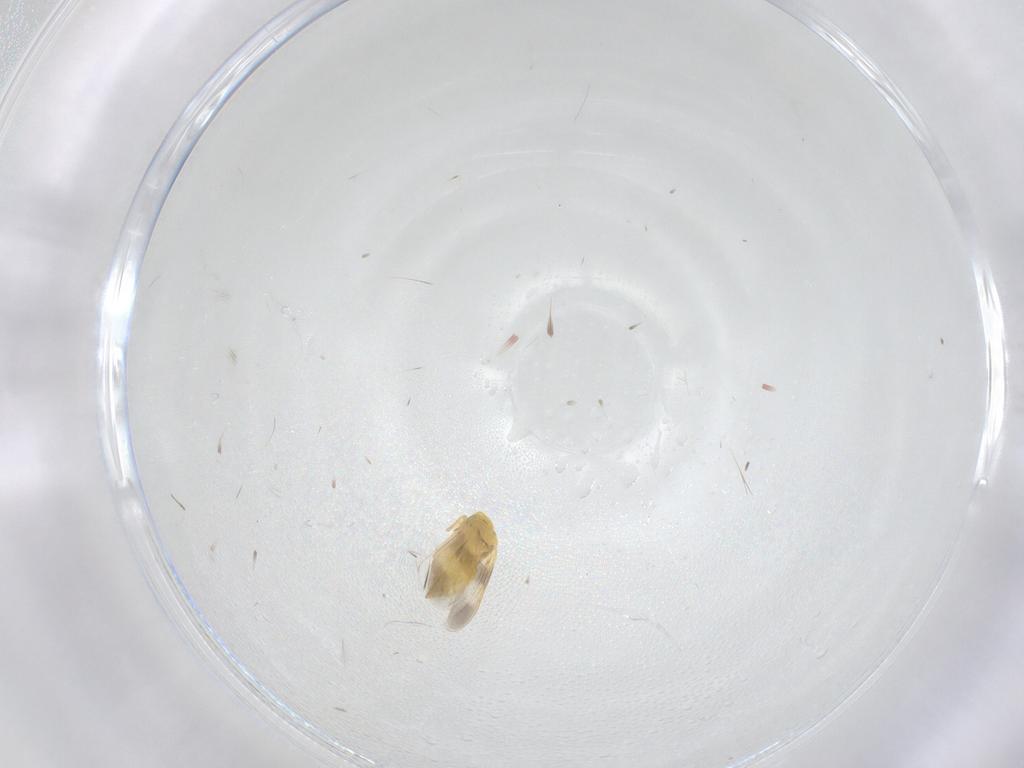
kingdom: Animalia
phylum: Arthropoda
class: Insecta
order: Hemiptera
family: Aleyrodidae
